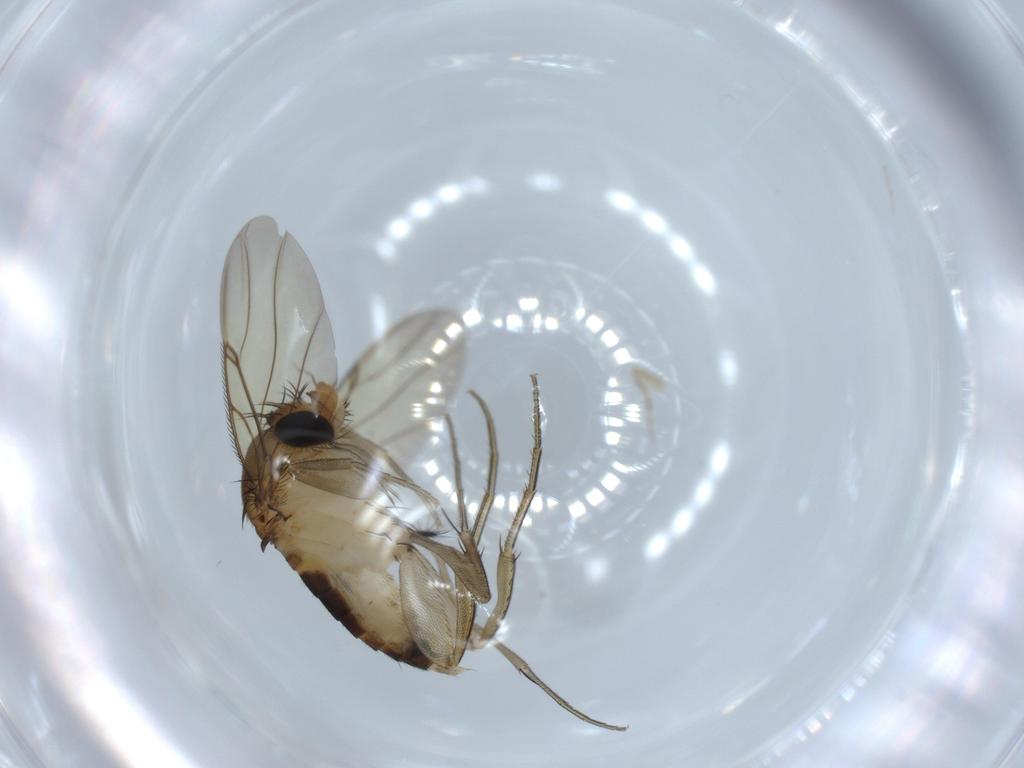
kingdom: Animalia
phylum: Arthropoda
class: Insecta
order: Diptera
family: Phoridae
